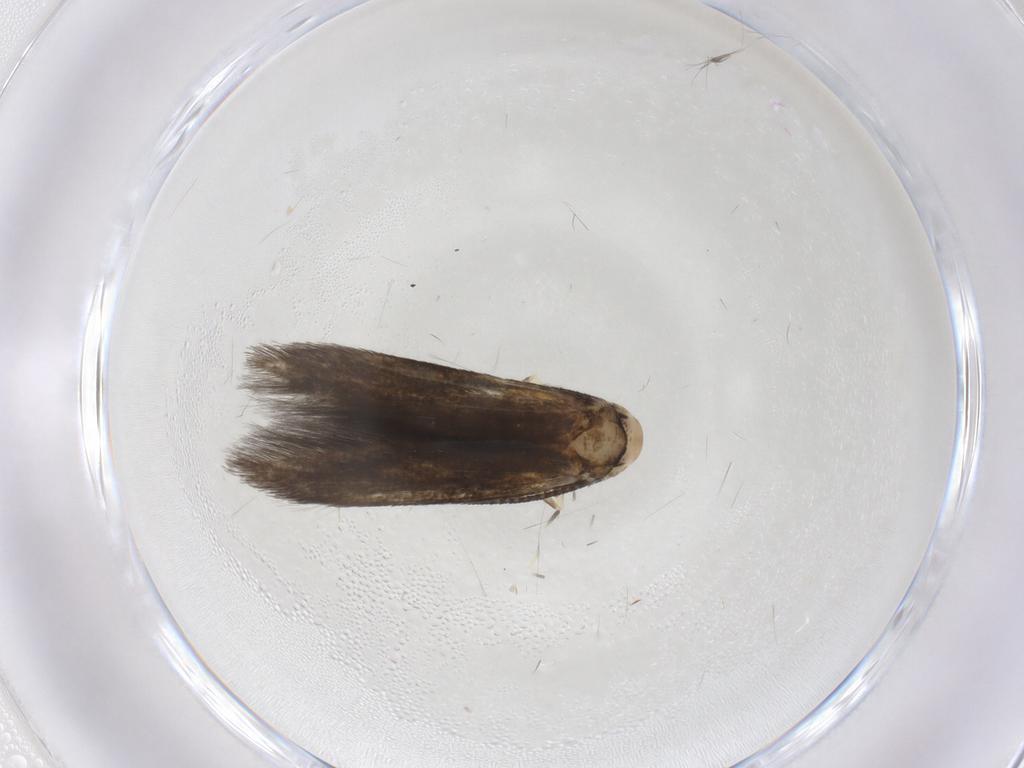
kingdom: Animalia
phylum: Arthropoda
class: Insecta
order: Lepidoptera
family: Stathmopodidae
